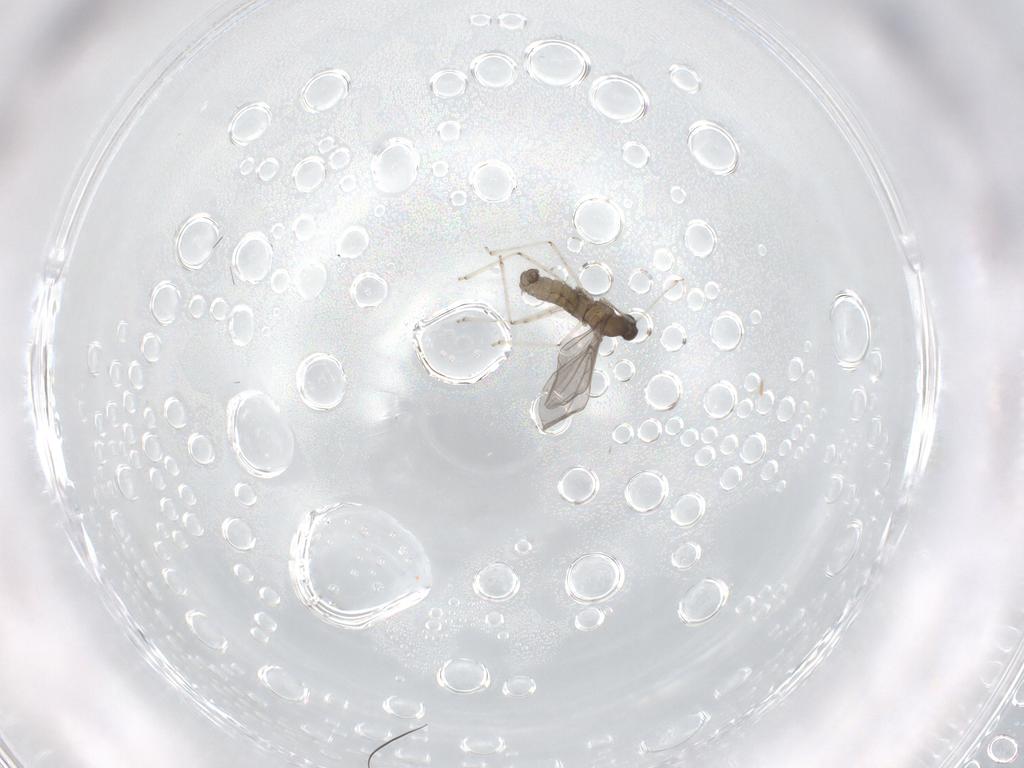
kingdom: Animalia
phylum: Arthropoda
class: Insecta
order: Diptera
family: Chironomidae
